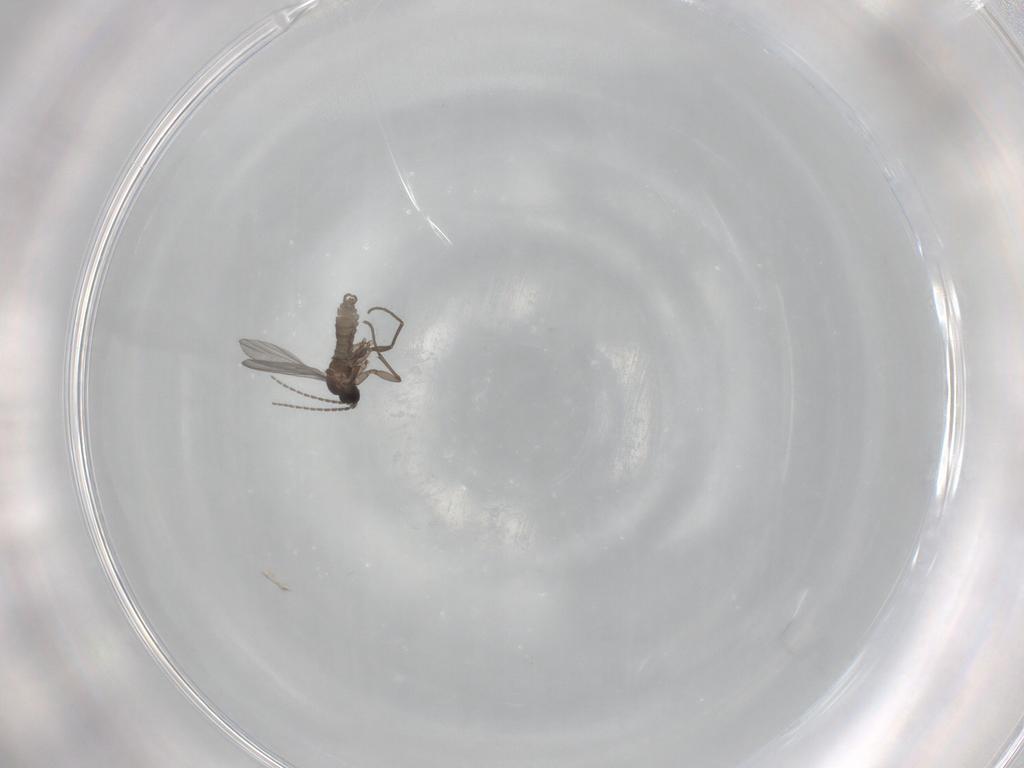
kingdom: Animalia
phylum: Arthropoda
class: Insecta
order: Diptera
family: Sciaridae
